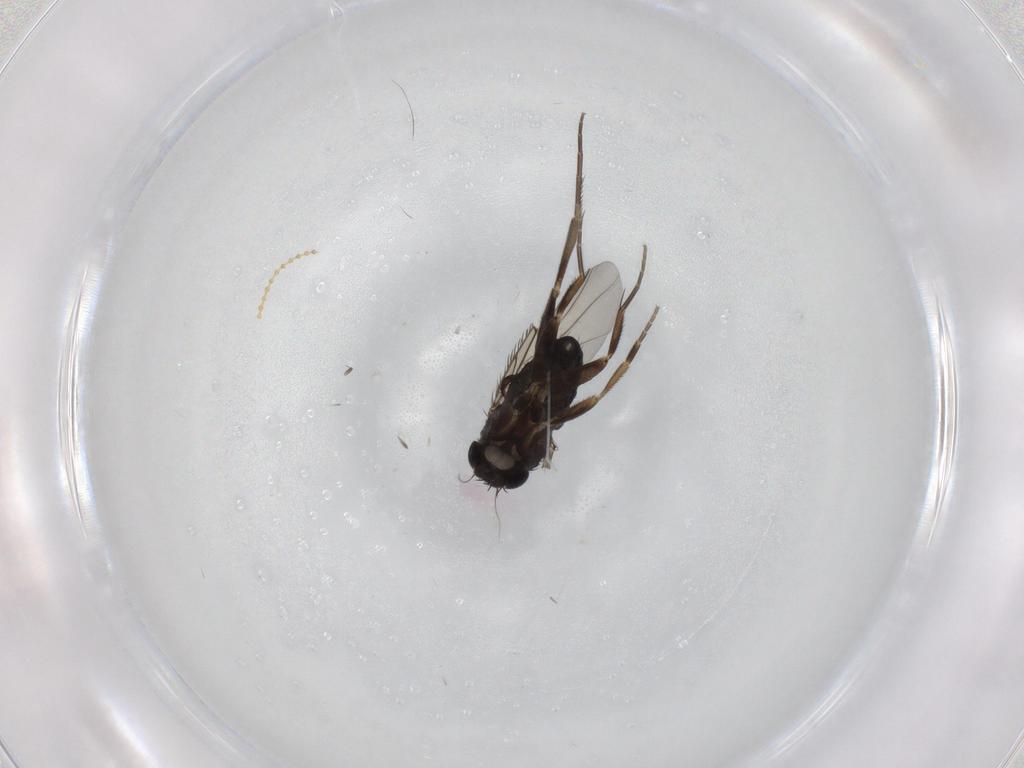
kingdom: Animalia
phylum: Arthropoda
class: Insecta
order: Diptera
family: Phoridae
